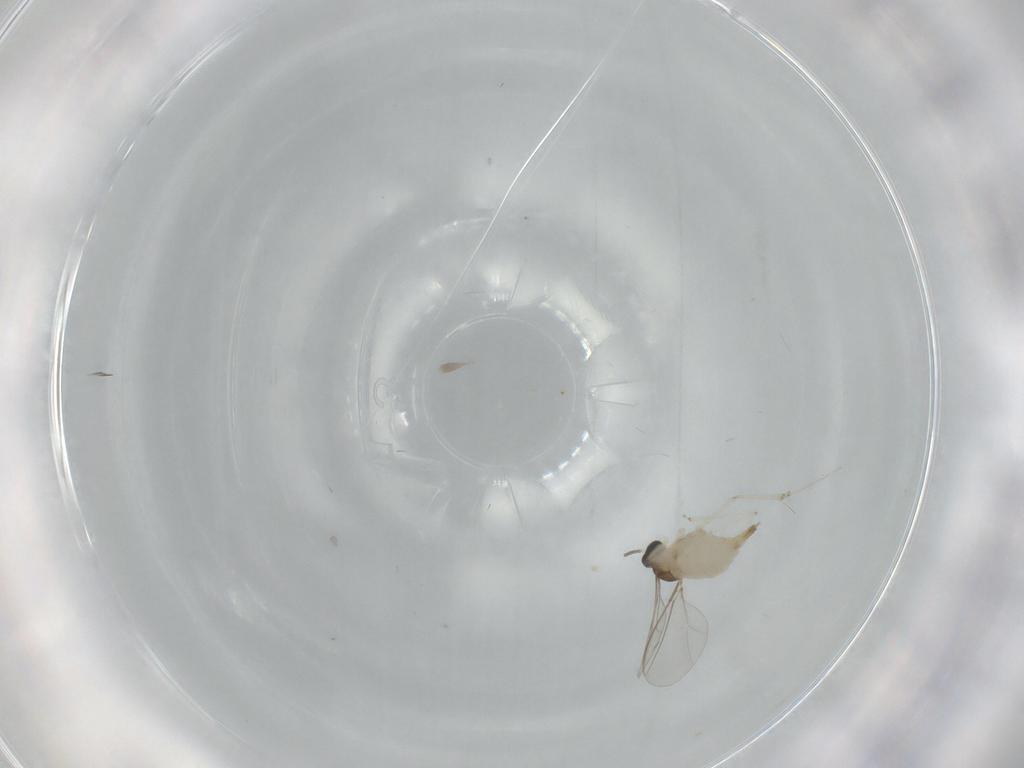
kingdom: Animalia
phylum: Arthropoda
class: Insecta
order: Diptera
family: Cecidomyiidae
